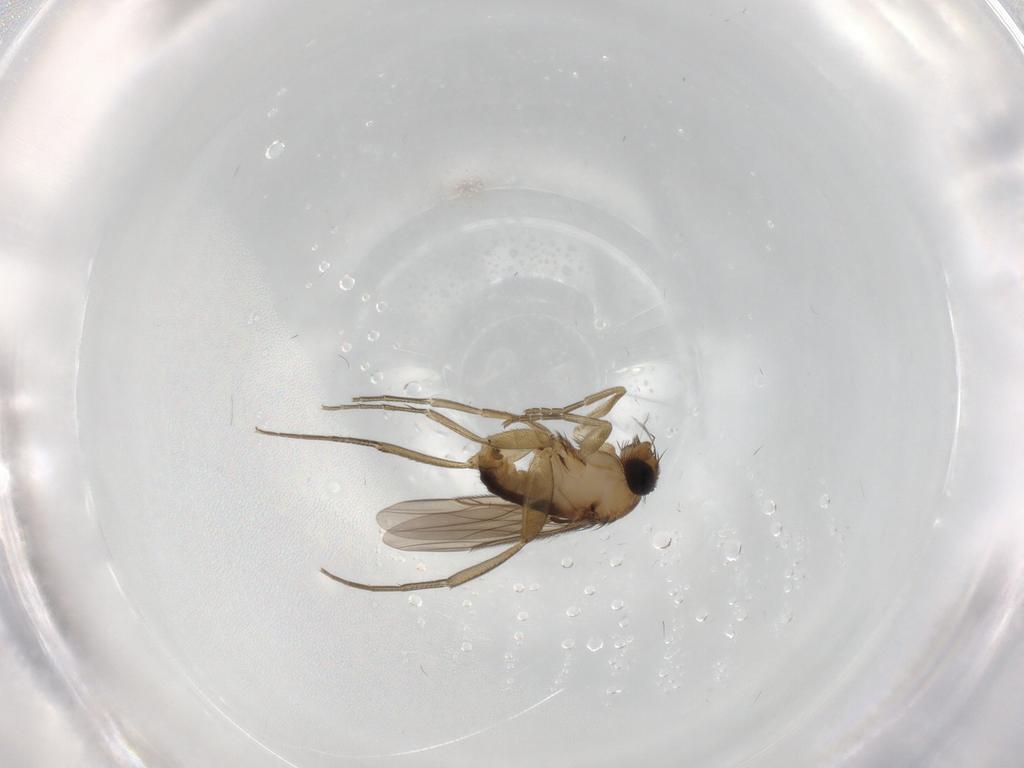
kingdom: Animalia
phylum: Arthropoda
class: Insecta
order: Diptera
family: Phoridae
